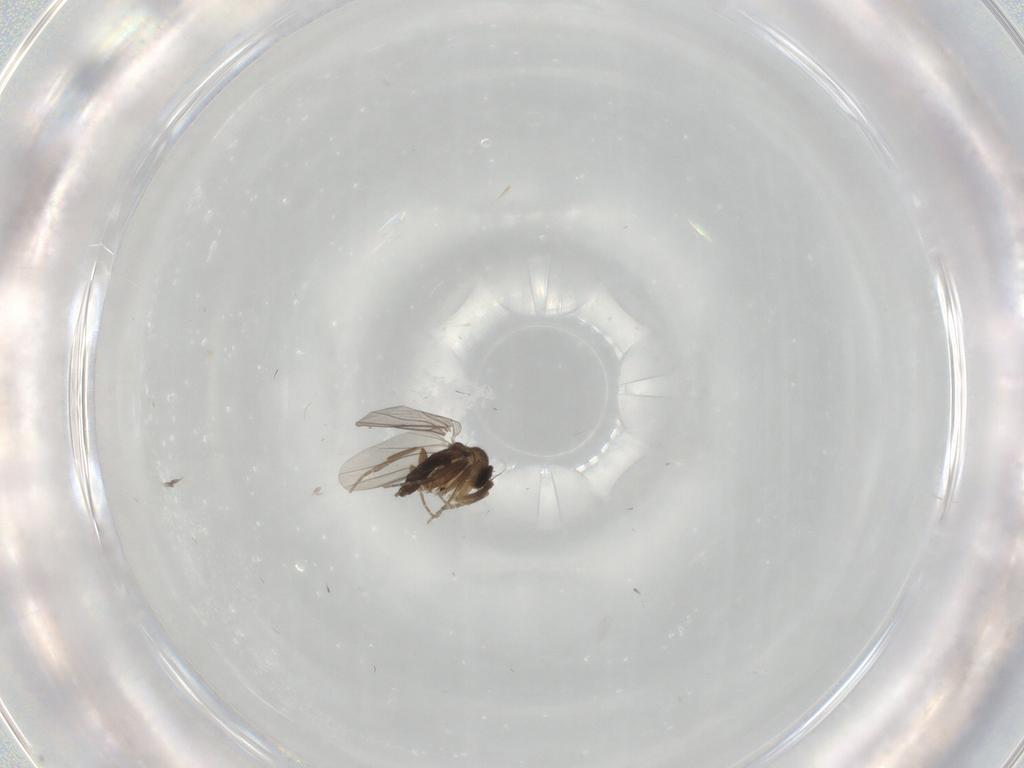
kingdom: Animalia
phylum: Arthropoda
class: Insecta
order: Diptera
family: Phoridae
